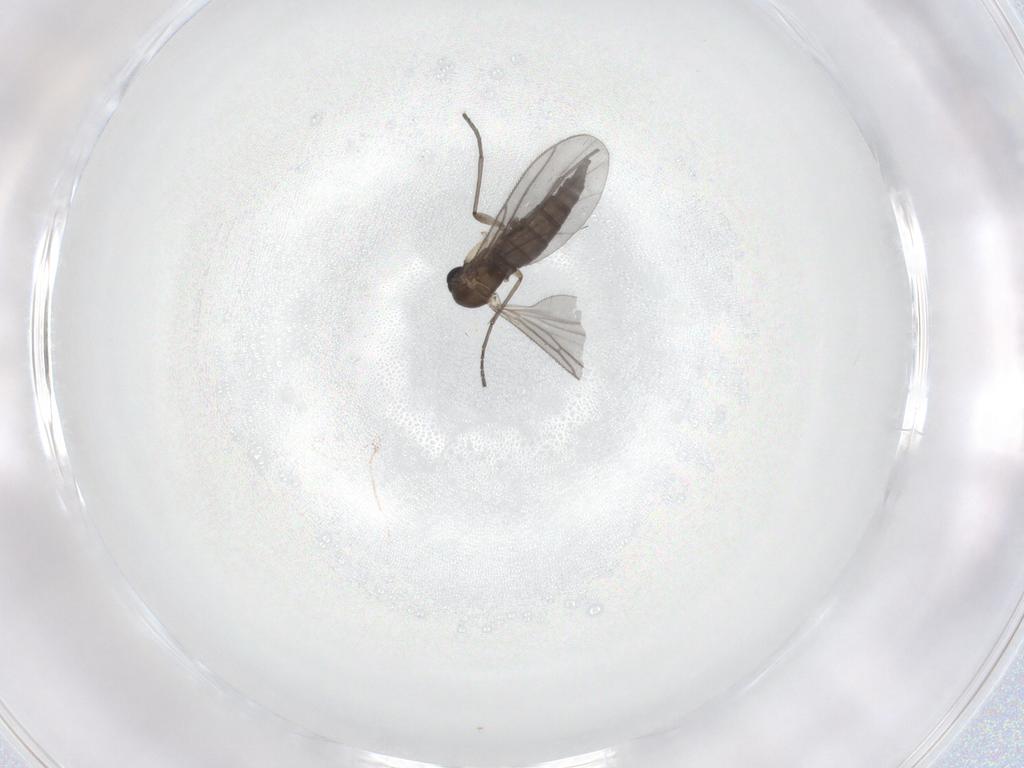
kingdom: Animalia
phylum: Arthropoda
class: Insecta
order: Diptera
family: Sciaridae
